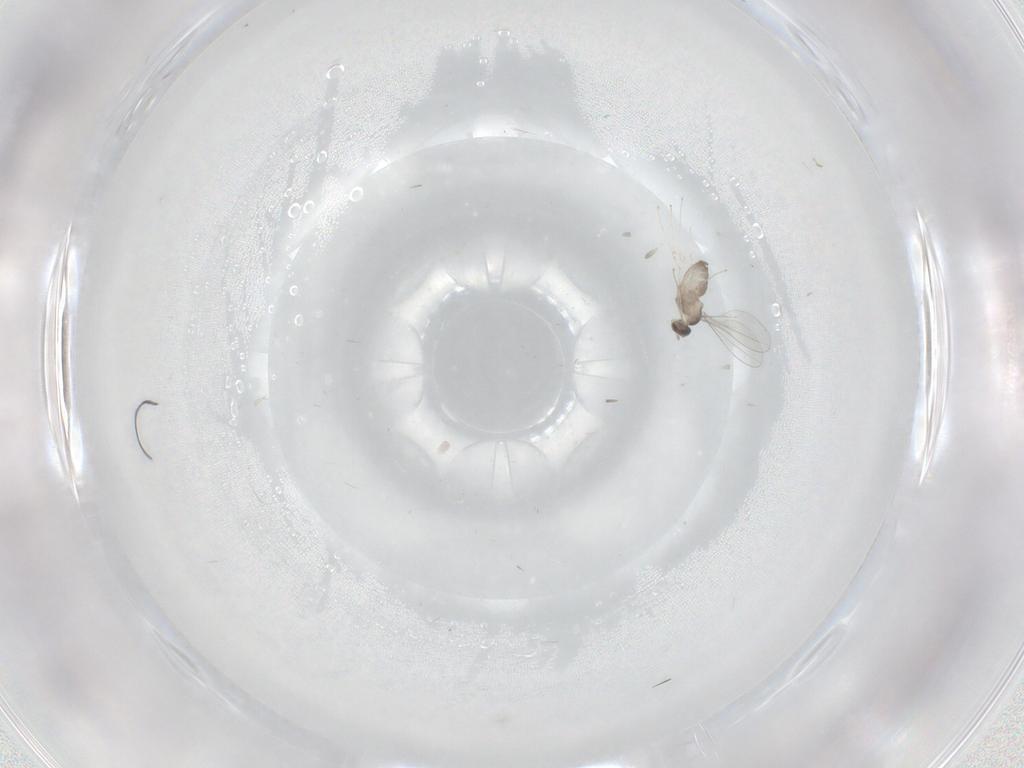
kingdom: Animalia
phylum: Arthropoda
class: Insecta
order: Diptera
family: Cecidomyiidae
